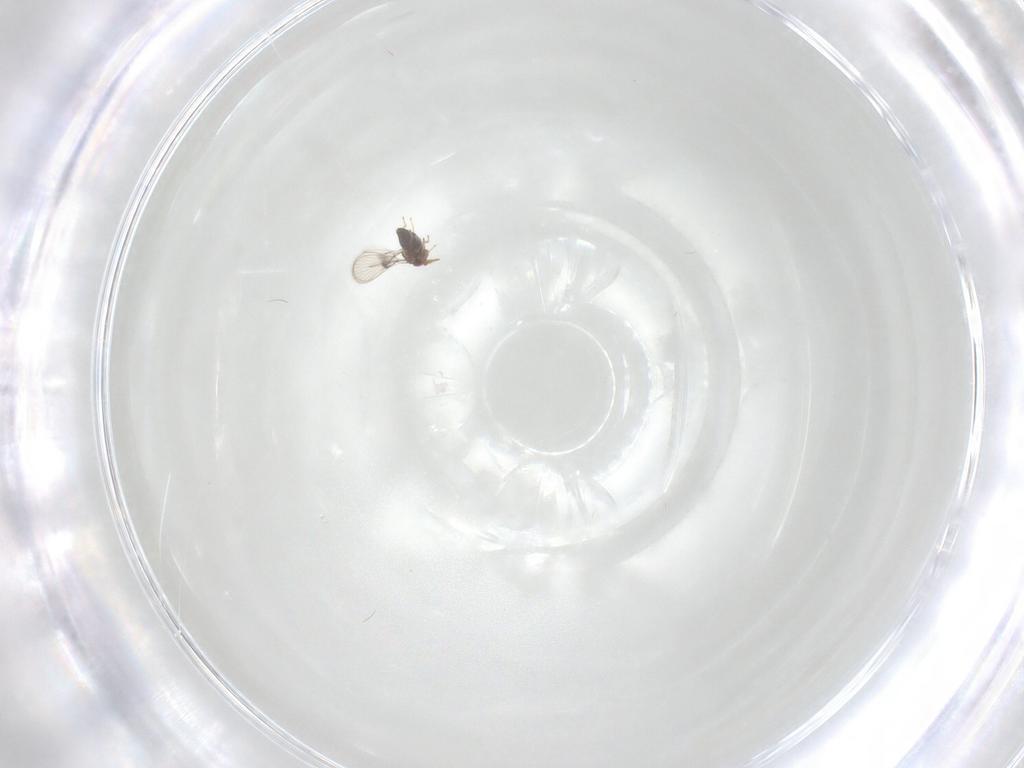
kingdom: Animalia
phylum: Arthropoda
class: Insecta
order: Hymenoptera
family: Trichogrammatidae
